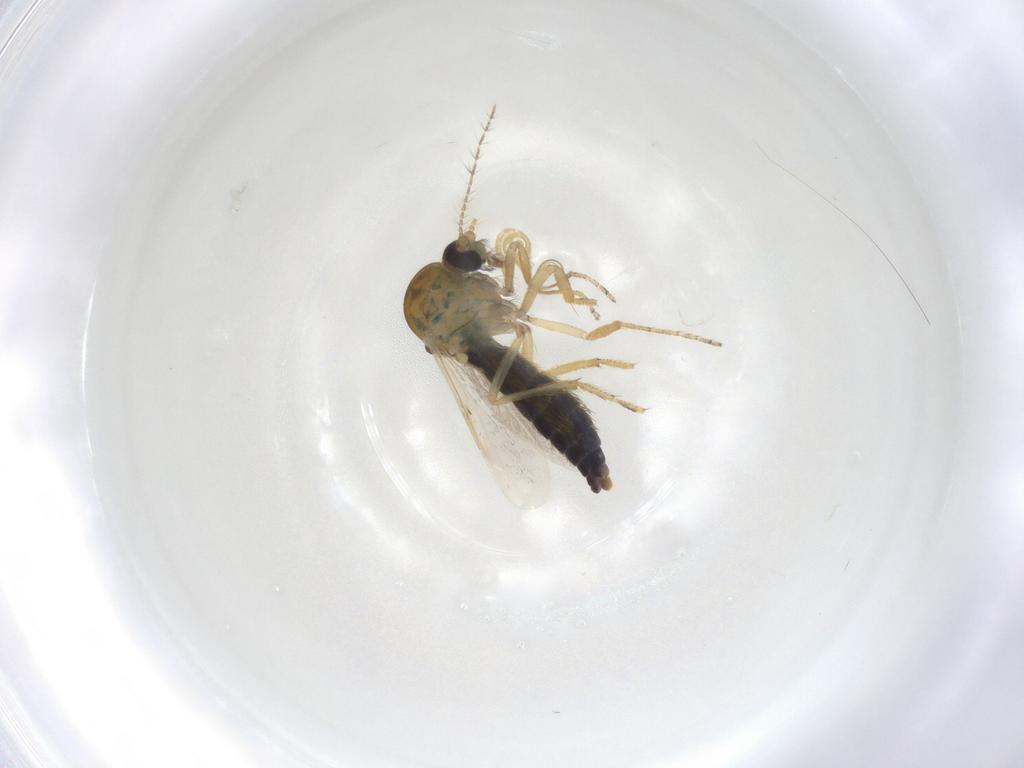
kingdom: Animalia
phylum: Arthropoda
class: Insecta
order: Diptera
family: Ceratopogonidae
